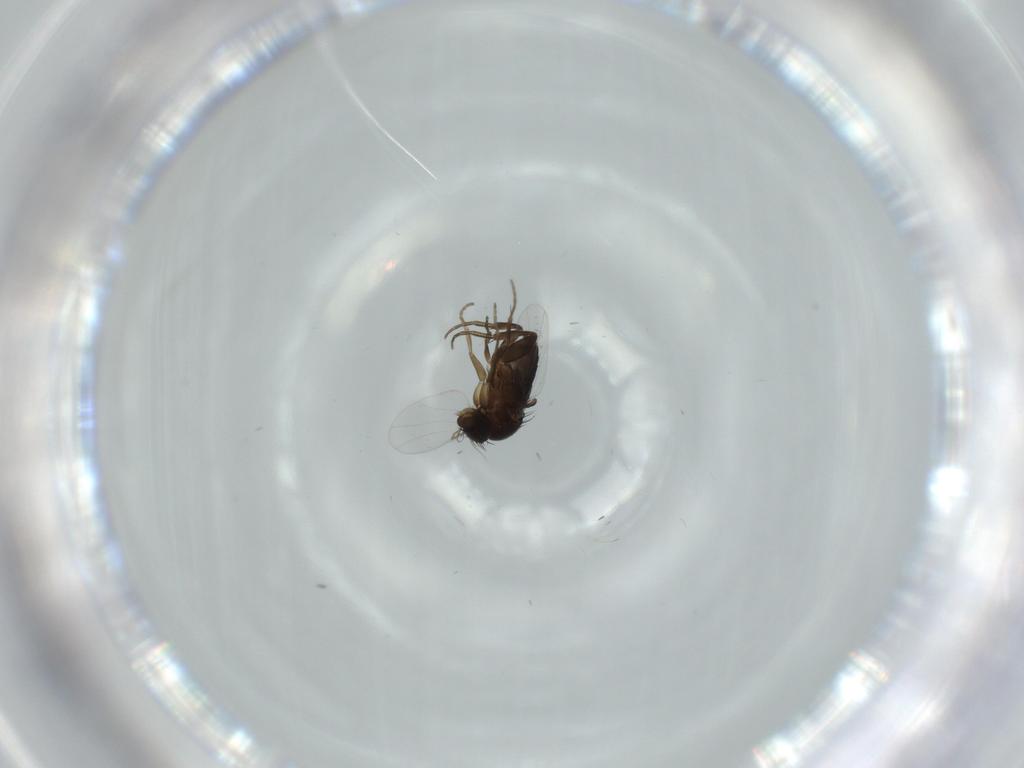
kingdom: Animalia
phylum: Arthropoda
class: Insecta
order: Diptera
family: Phoridae
